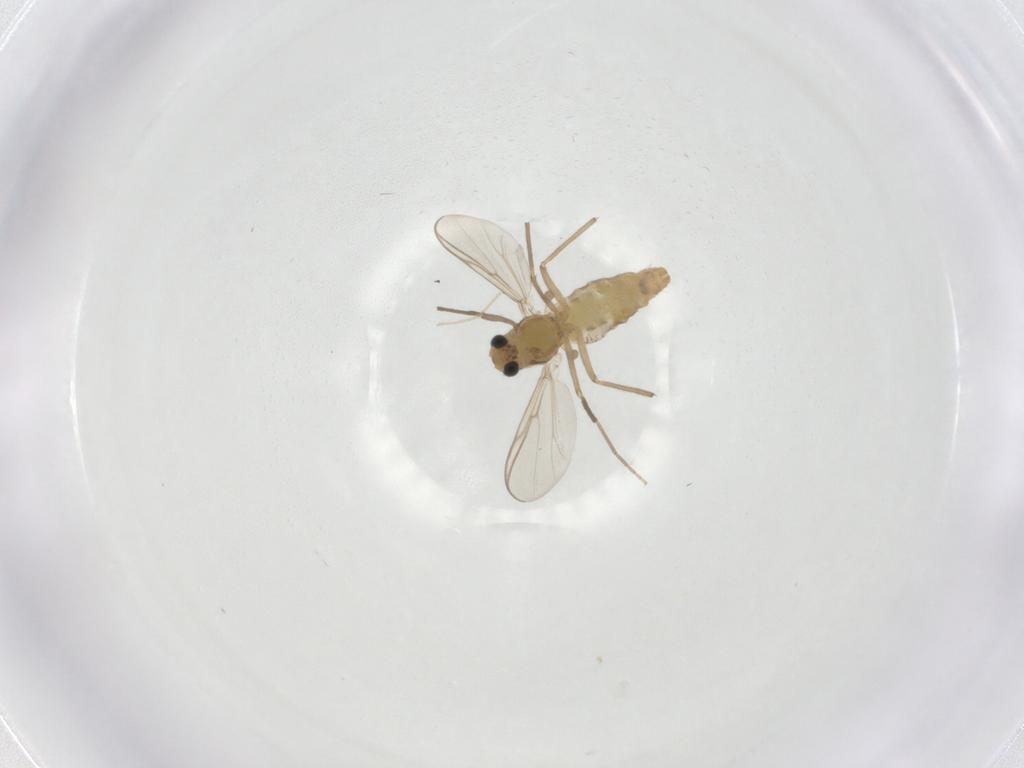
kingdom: Animalia
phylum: Arthropoda
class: Insecta
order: Diptera
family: Chironomidae
